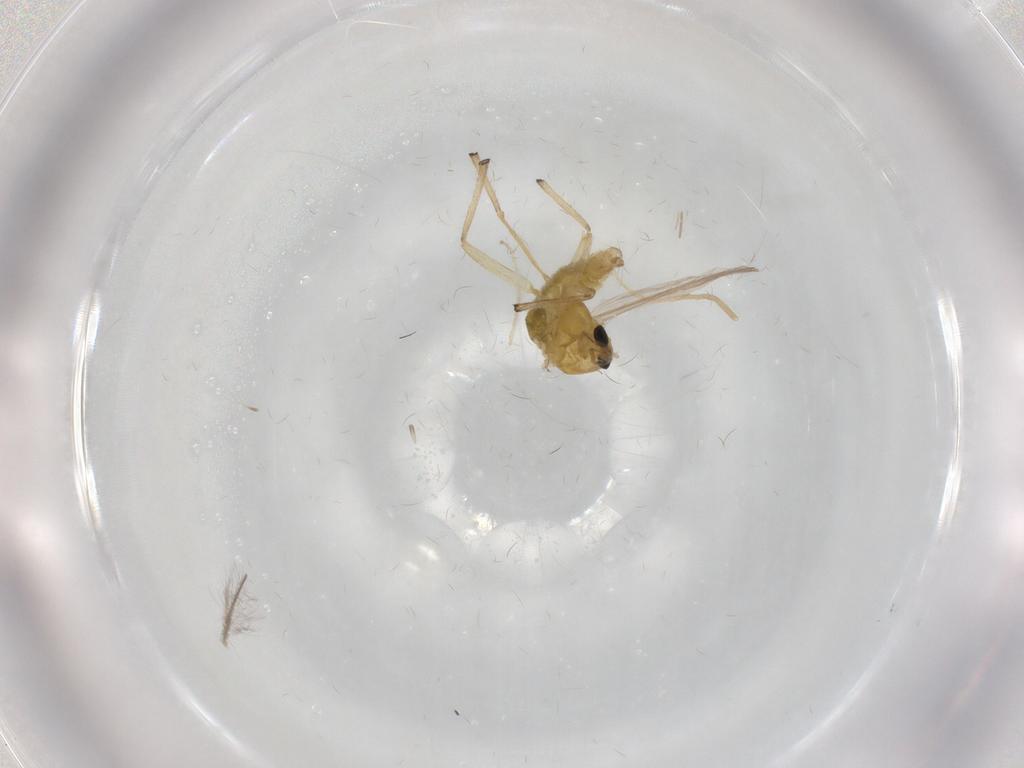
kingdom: Animalia
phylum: Arthropoda
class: Insecta
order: Diptera
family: Chironomidae
